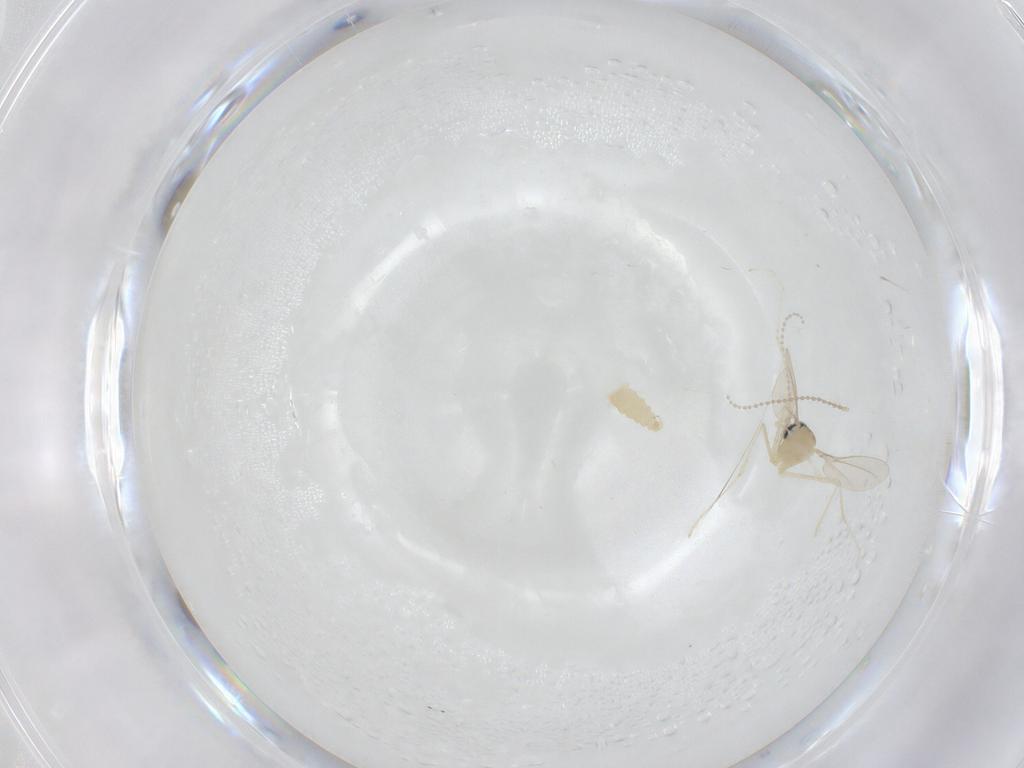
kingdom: Animalia
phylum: Arthropoda
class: Insecta
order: Diptera
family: Cecidomyiidae
